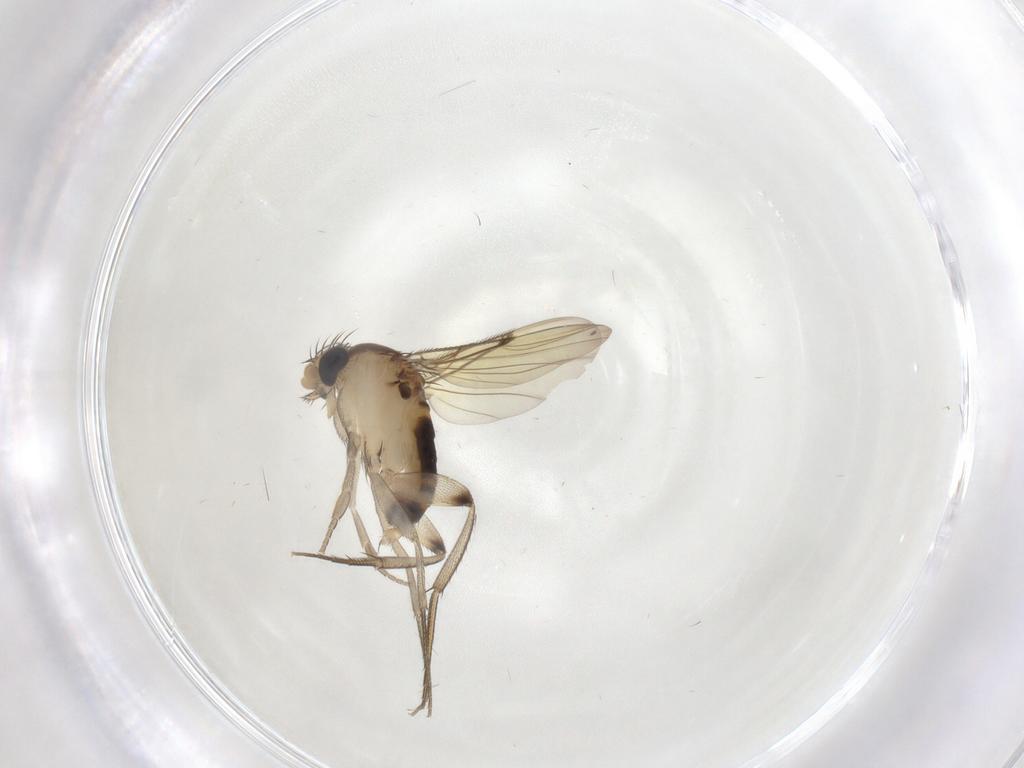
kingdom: Animalia
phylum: Arthropoda
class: Insecta
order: Diptera
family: Phoridae
